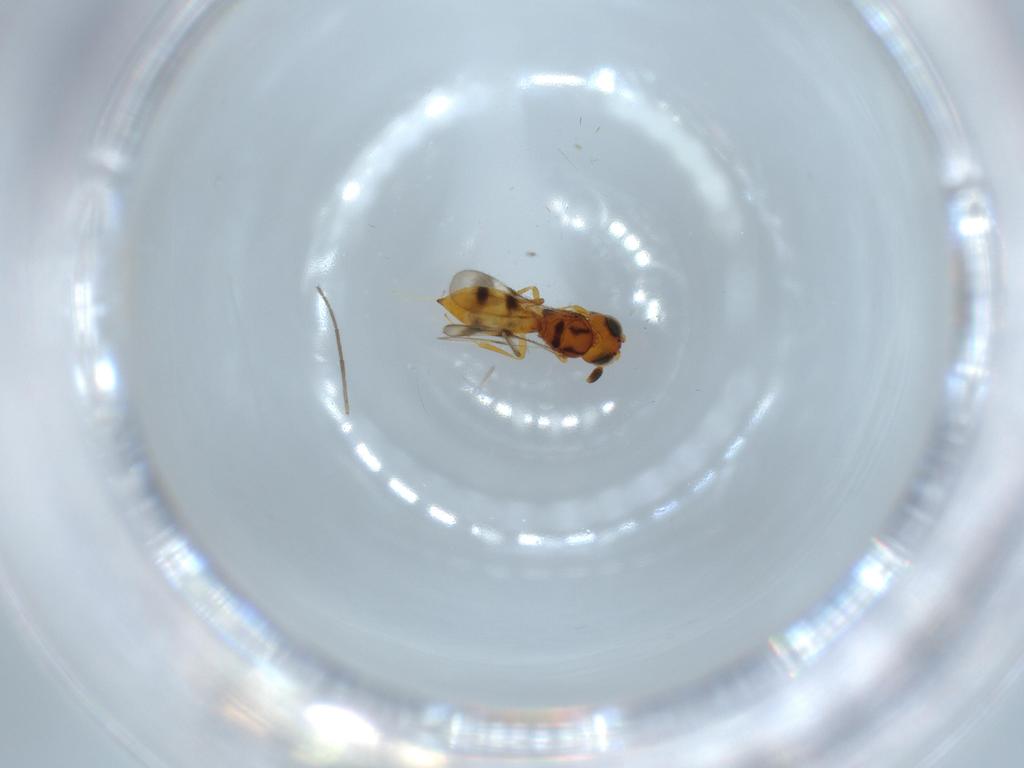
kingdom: Animalia
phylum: Arthropoda
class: Insecta
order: Hymenoptera
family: Scelionidae
